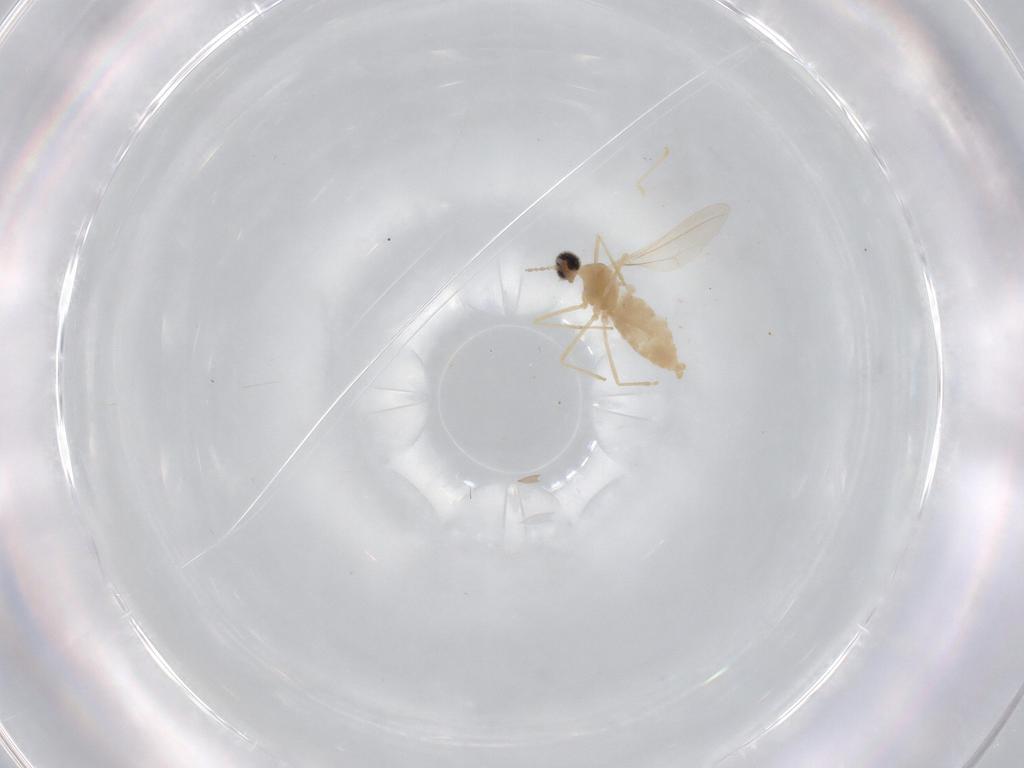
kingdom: Animalia
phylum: Arthropoda
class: Insecta
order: Diptera
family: Cecidomyiidae
